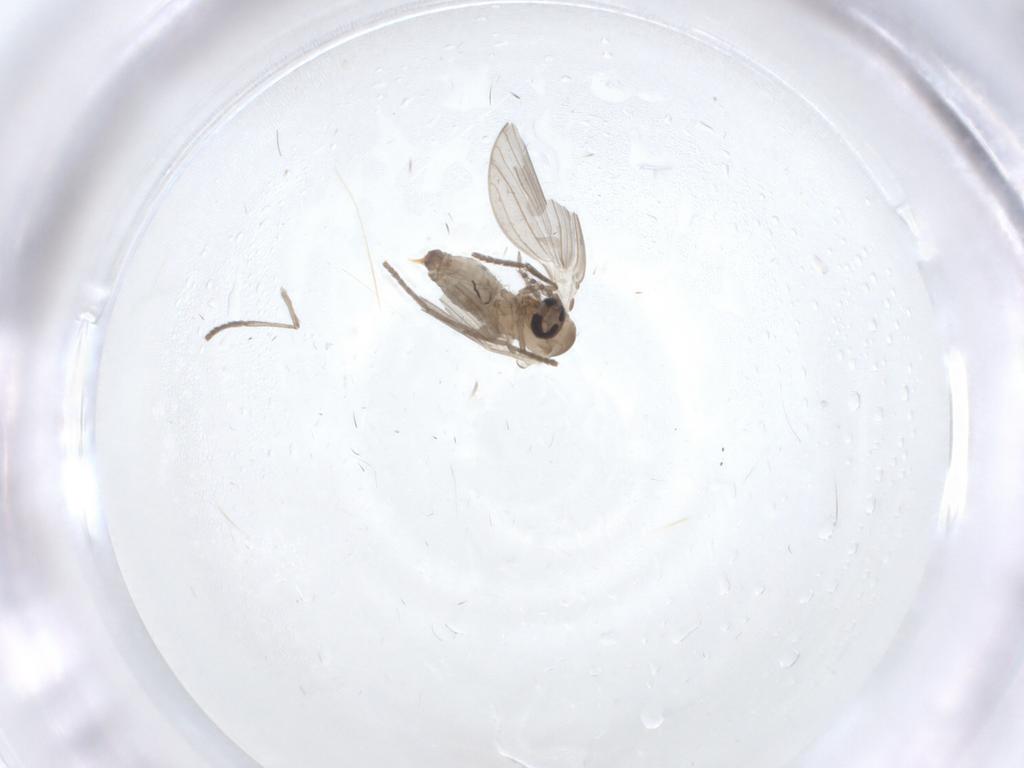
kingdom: Animalia
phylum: Arthropoda
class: Insecta
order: Diptera
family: Psychodidae
